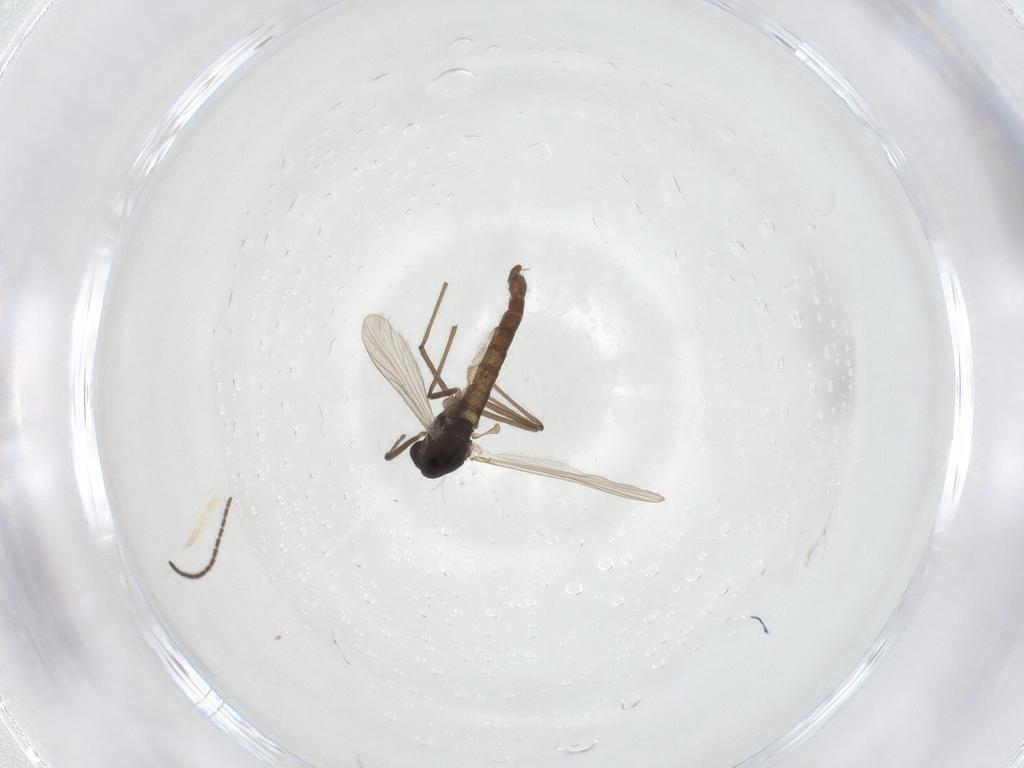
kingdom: Animalia
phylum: Arthropoda
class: Insecta
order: Diptera
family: Chironomidae
